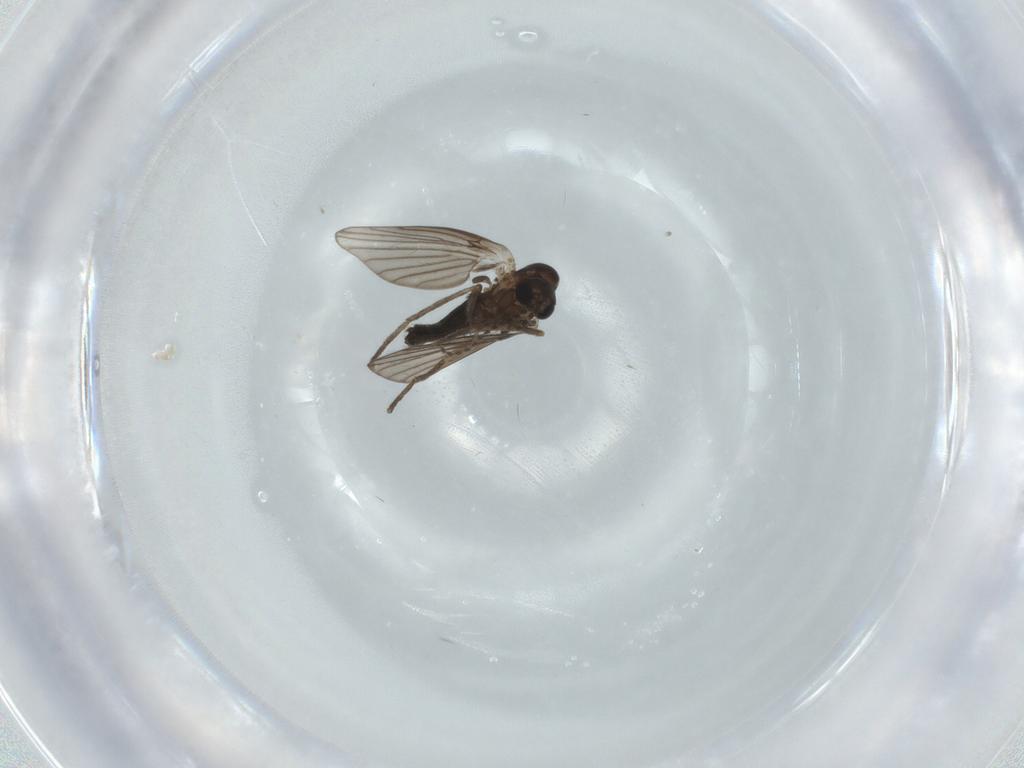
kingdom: Animalia
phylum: Arthropoda
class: Insecta
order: Diptera
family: Phoridae
